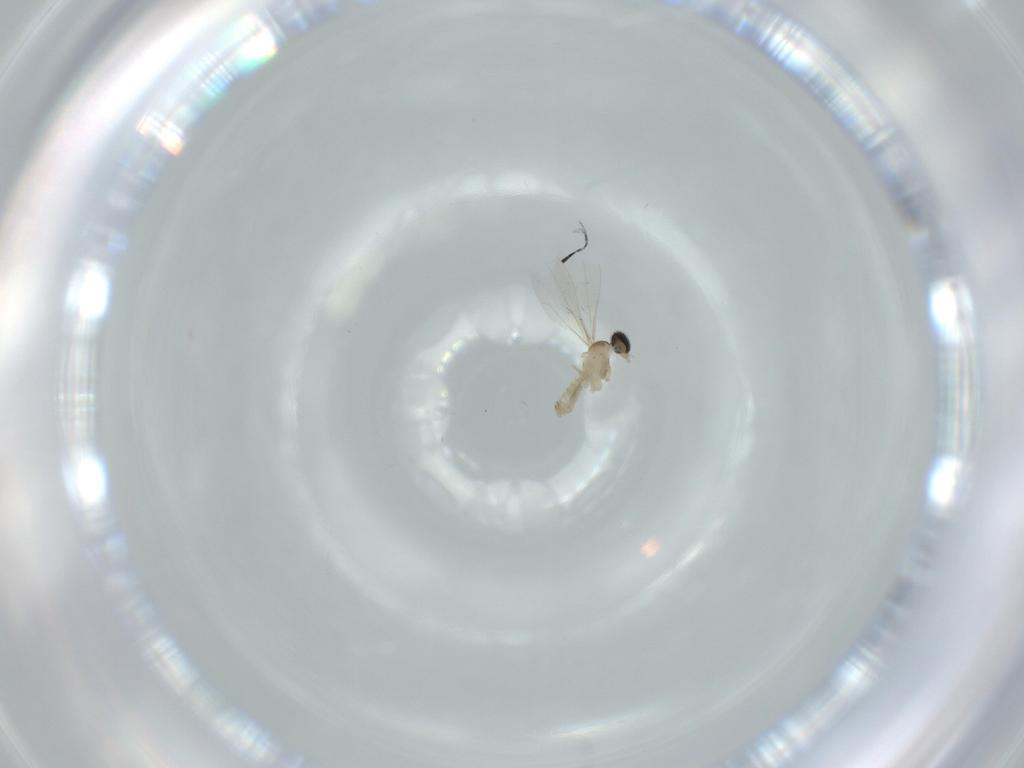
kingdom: Animalia
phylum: Arthropoda
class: Insecta
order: Diptera
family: Cecidomyiidae
